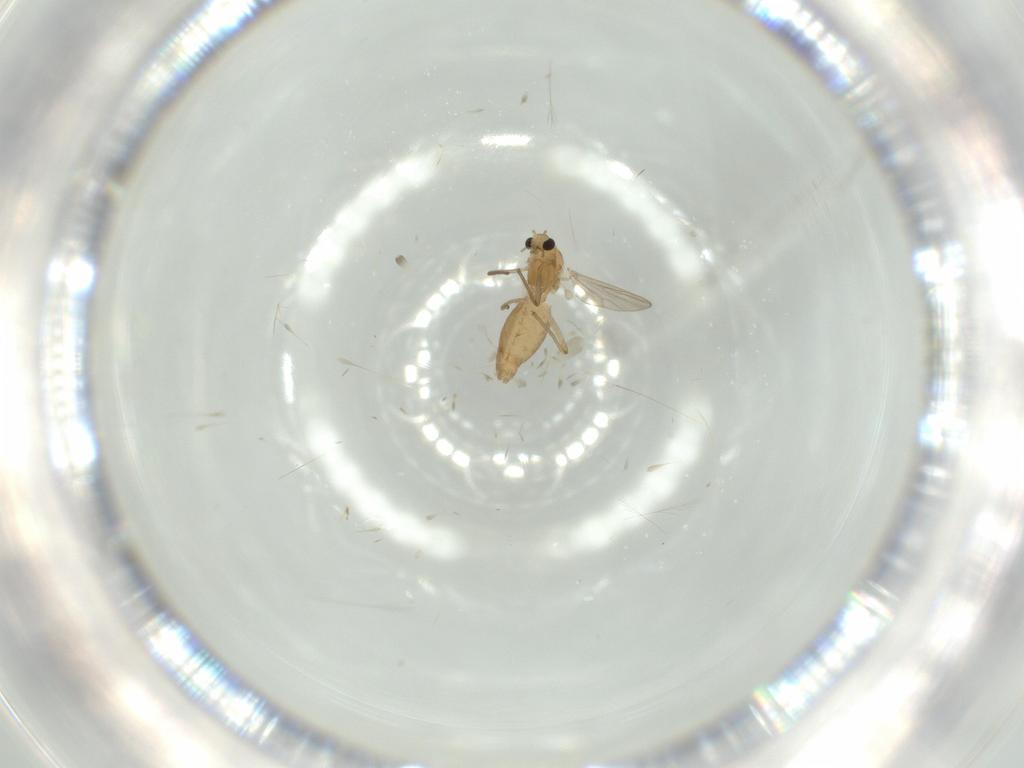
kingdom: Animalia
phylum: Arthropoda
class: Insecta
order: Diptera
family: Chironomidae
